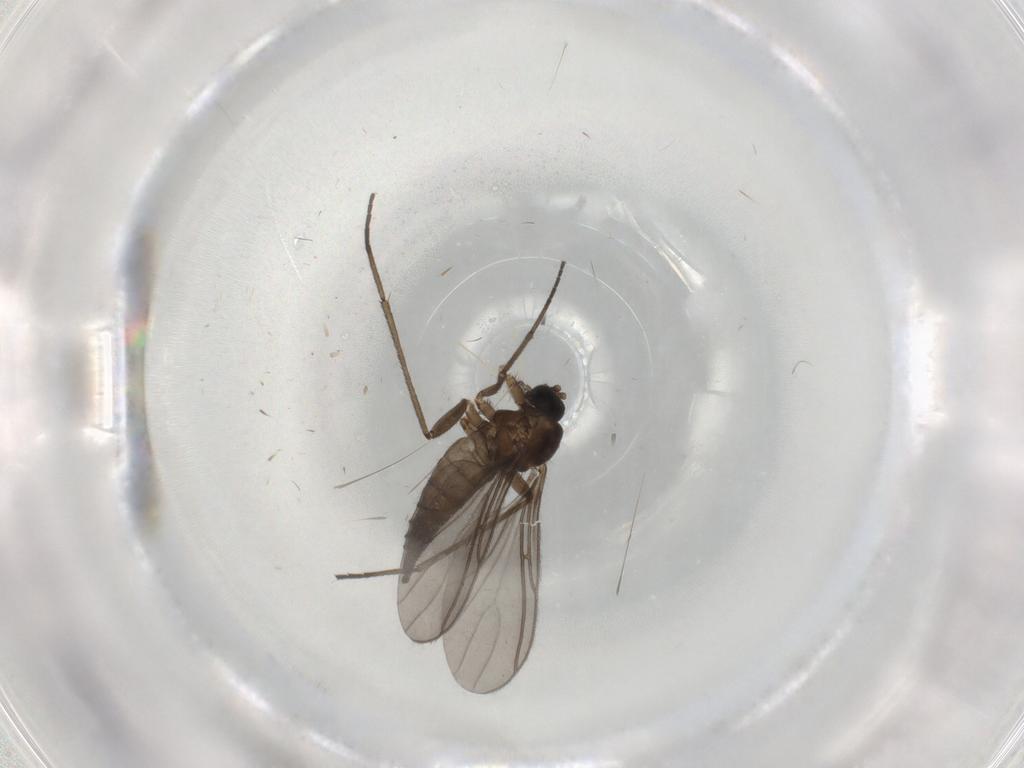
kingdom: Animalia
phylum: Arthropoda
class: Insecta
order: Diptera
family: Sciaridae
